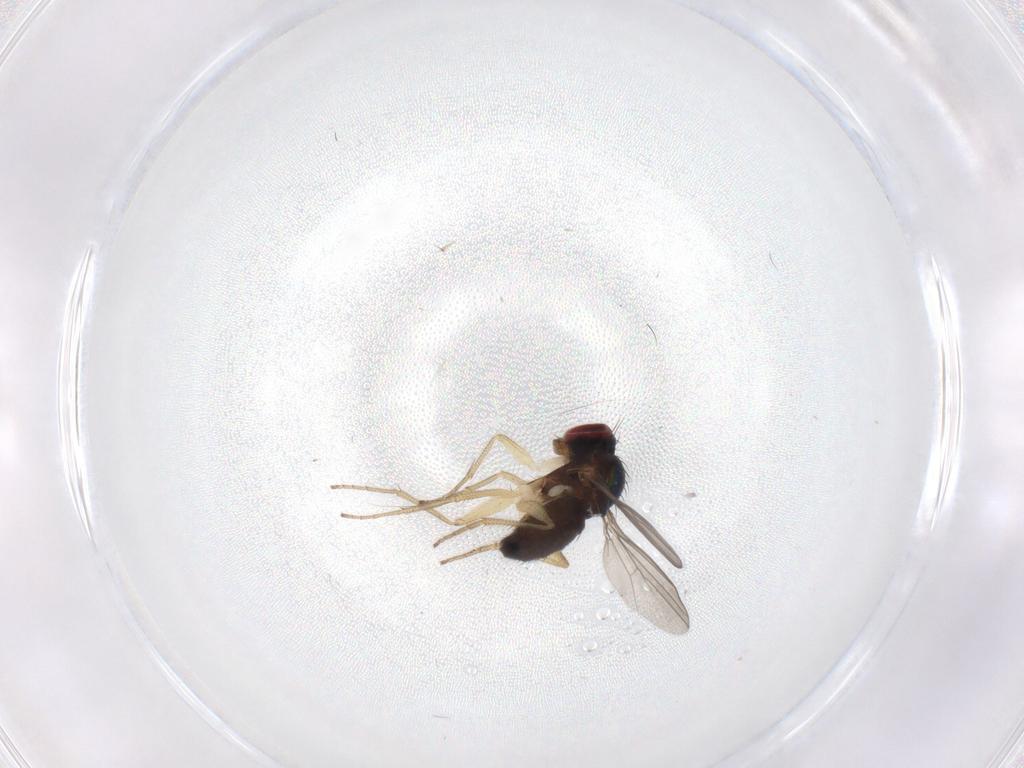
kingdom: Animalia
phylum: Arthropoda
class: Insecta
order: Diptera
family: Dolichopodidae
